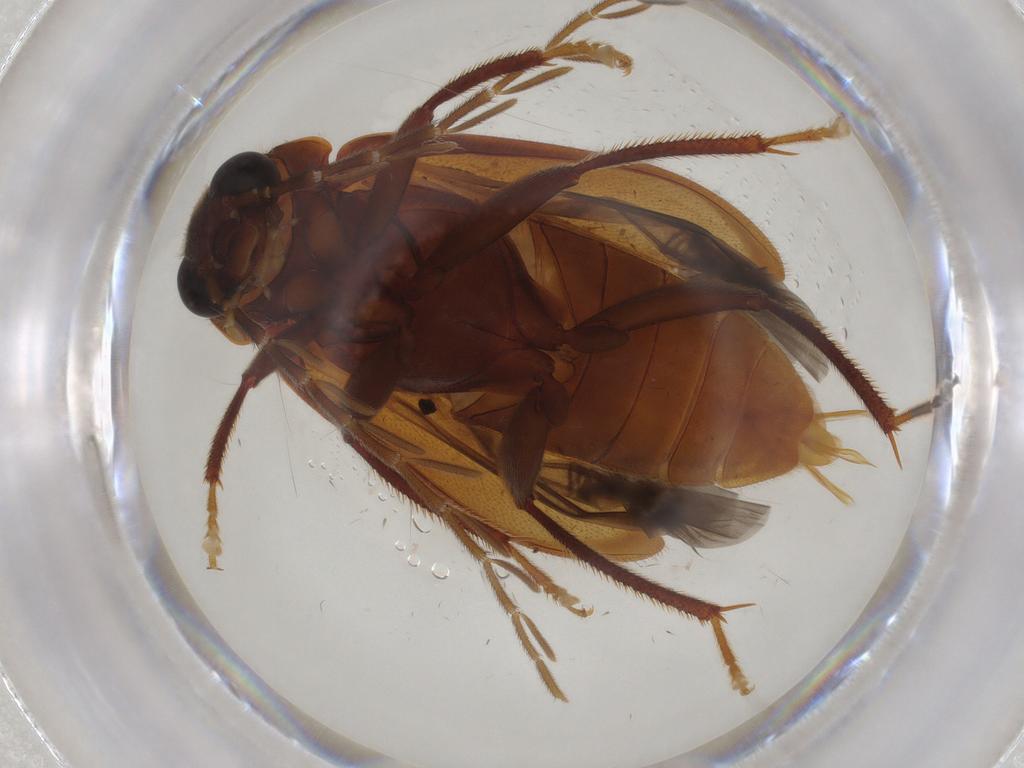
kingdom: Animalia
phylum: Arthropoda
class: Insecta
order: Coleoptera
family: Ptilodactylidae
